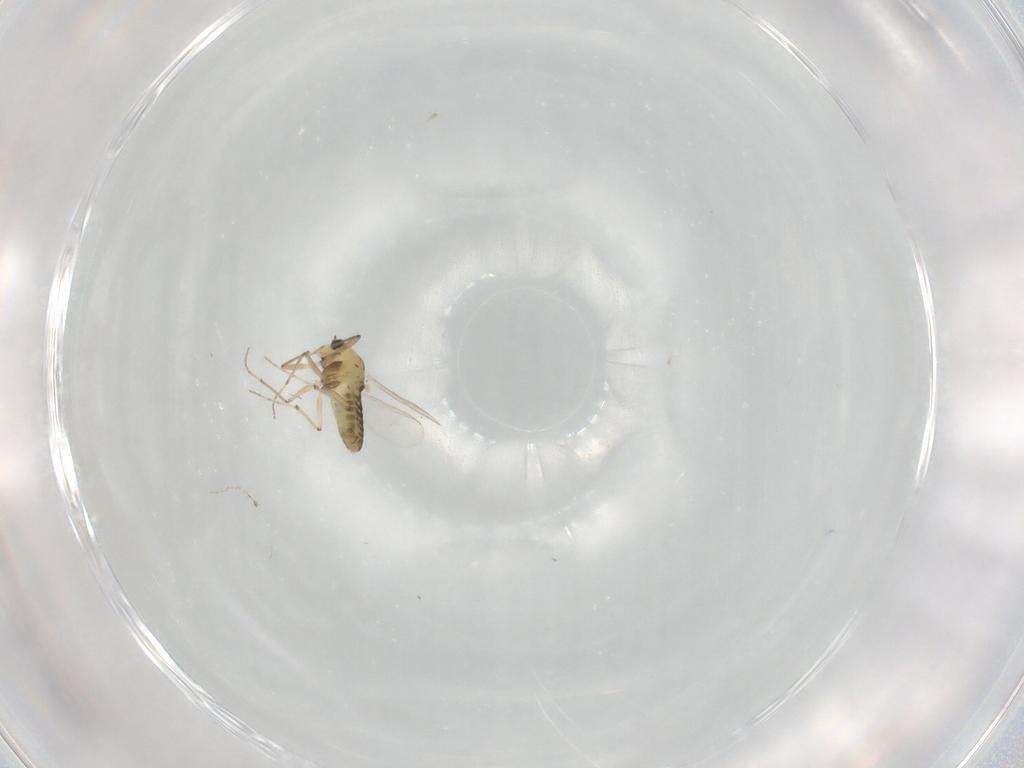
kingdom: Animalia
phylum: Arthropoda
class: Insecta
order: Diptera
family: Chironomidae
